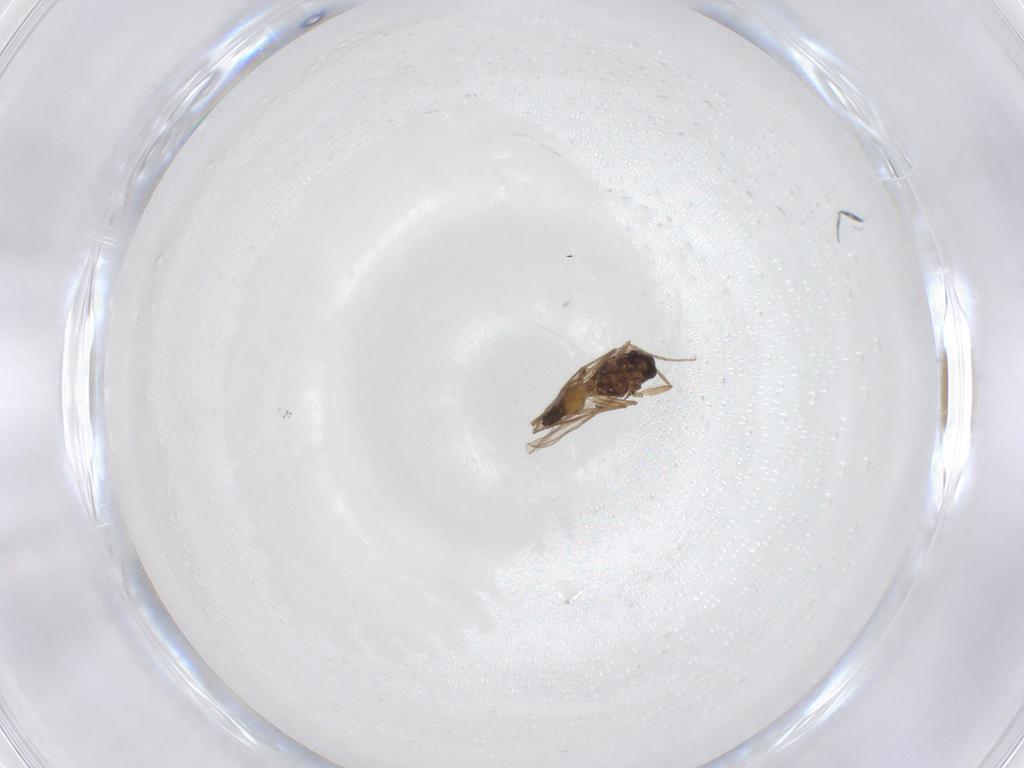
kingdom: Animalia
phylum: Arthropoda
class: Insecta
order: Diptera
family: Chironomidae
